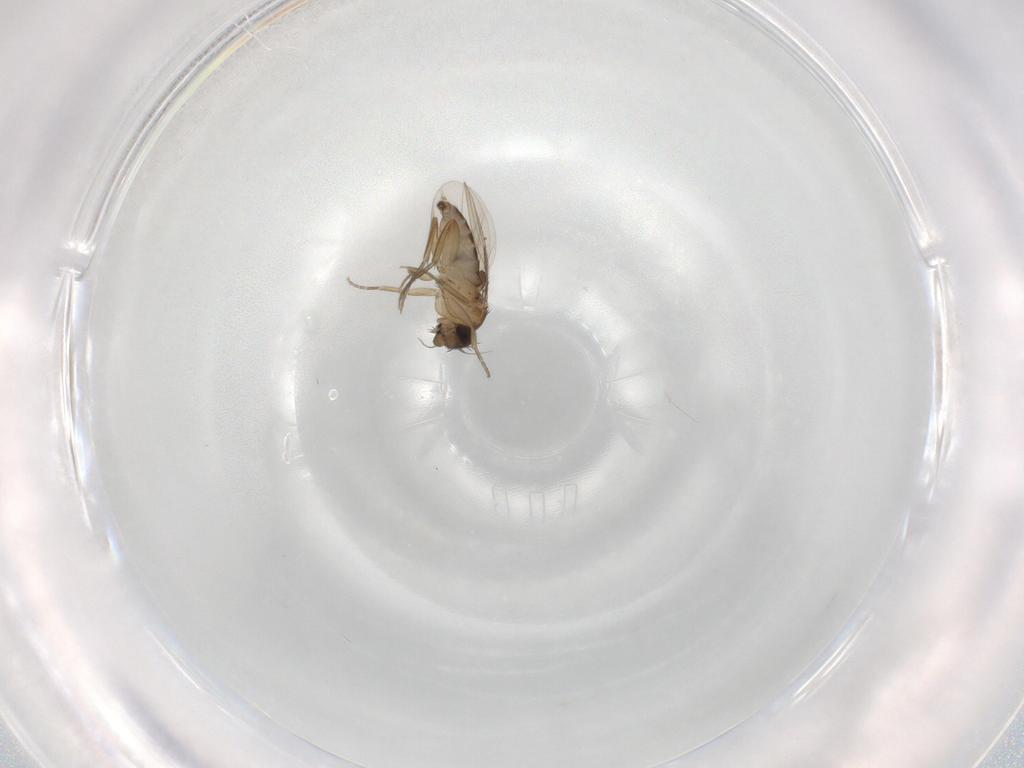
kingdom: Animalia
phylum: Arthropoda
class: Insecta
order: Diptera
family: Phoridae
